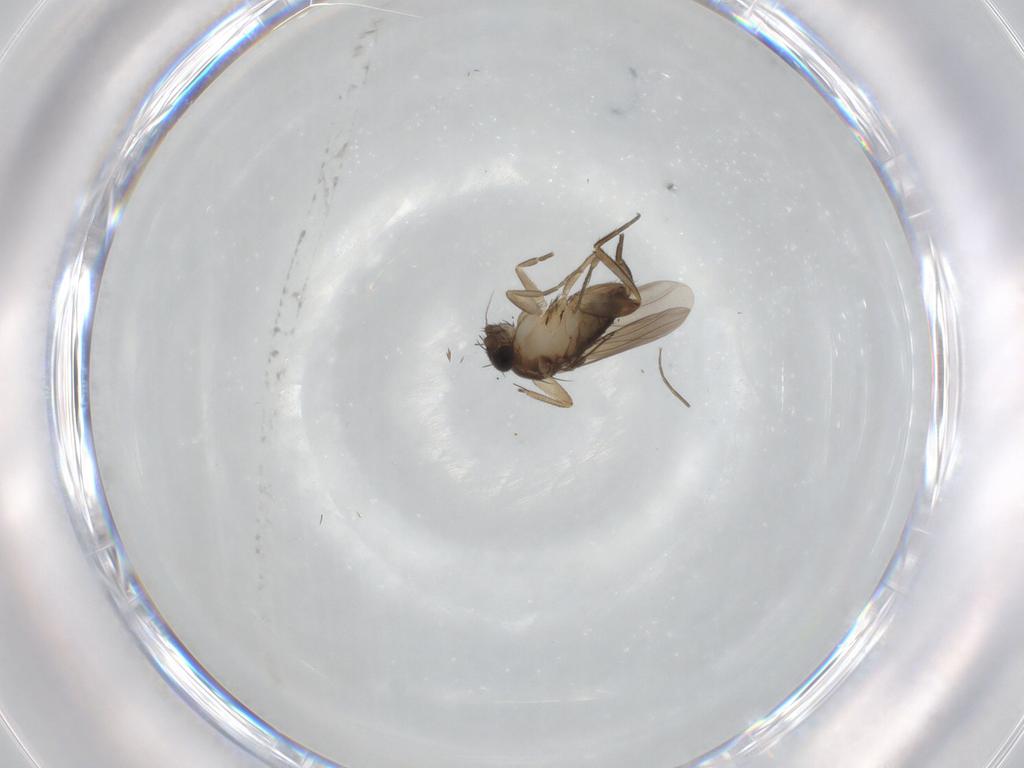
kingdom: Animalia
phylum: Arthropoda
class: Insecta
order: Diptera
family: Phoridae
